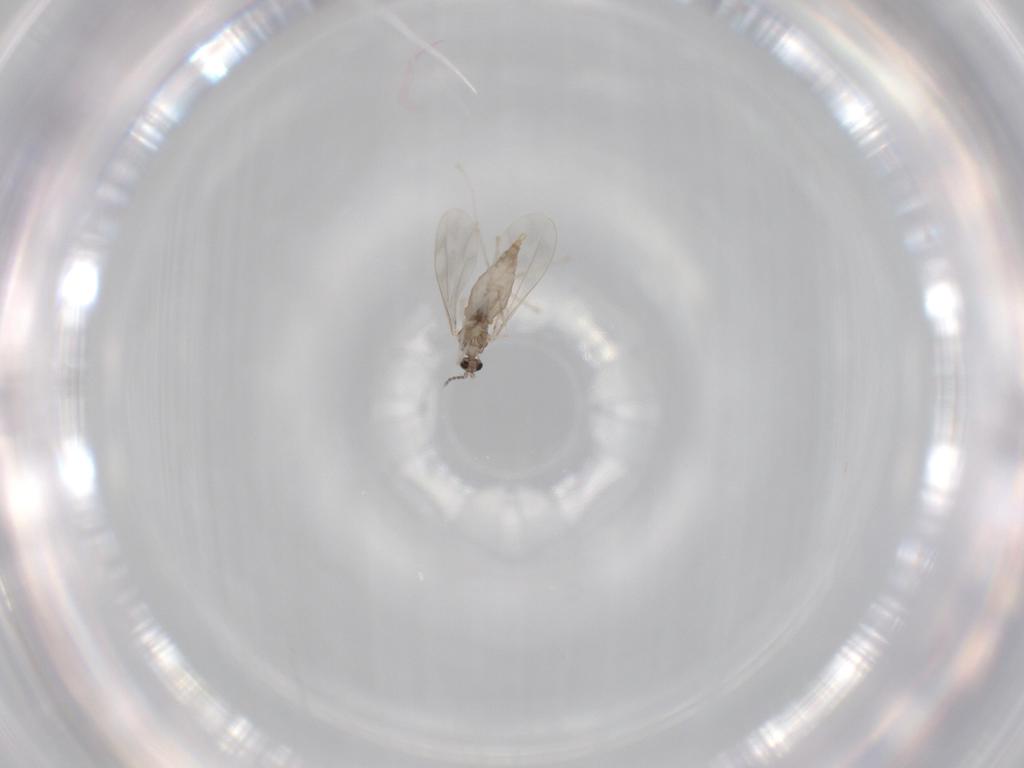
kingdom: Animalia
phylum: Arthropoda
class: Insecta
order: Diptera
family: Cecidomyiidae
